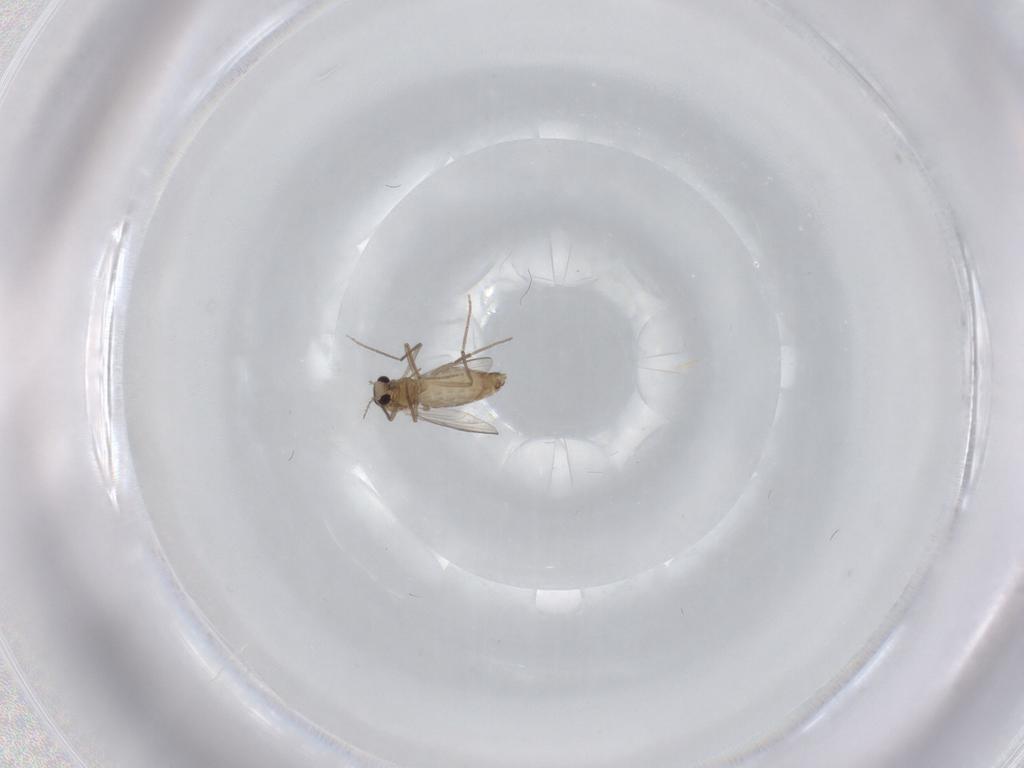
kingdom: Animalia
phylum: Arthropoda
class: Insecta
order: Diptera
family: Chironomidae
